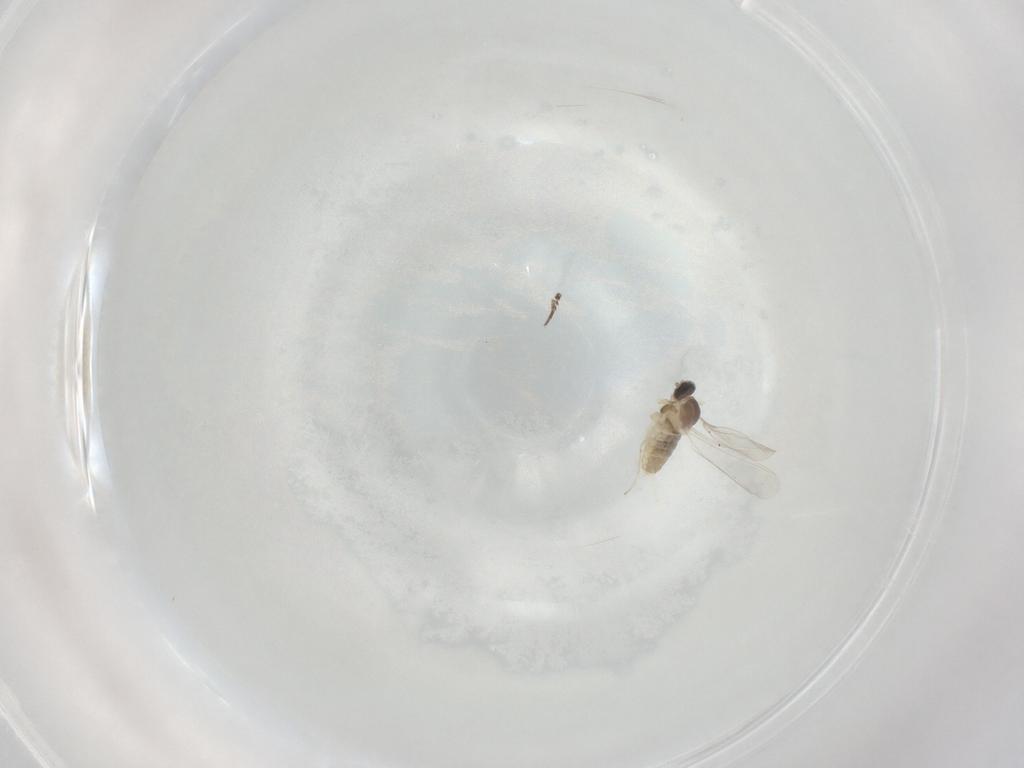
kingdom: Animalia
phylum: Arthropoda
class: Insecta
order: Diptera
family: Cecidomyiidae
